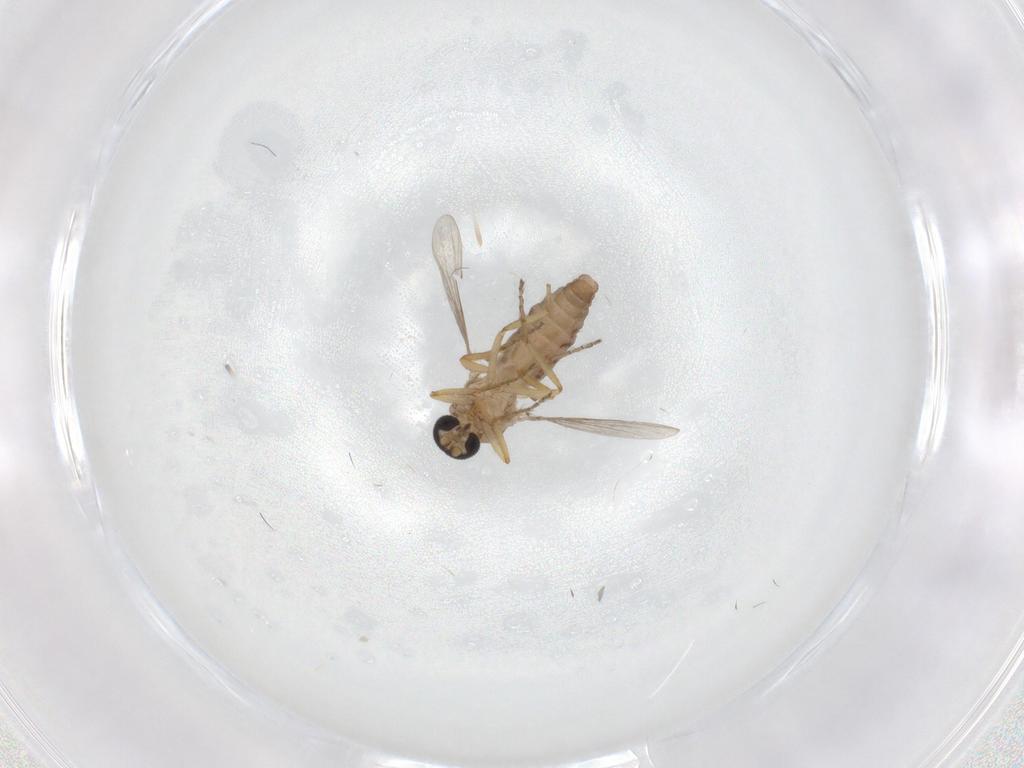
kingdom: Animalia
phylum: Arthropoda
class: Insecta
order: Diptera
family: Ceratopogonidae
